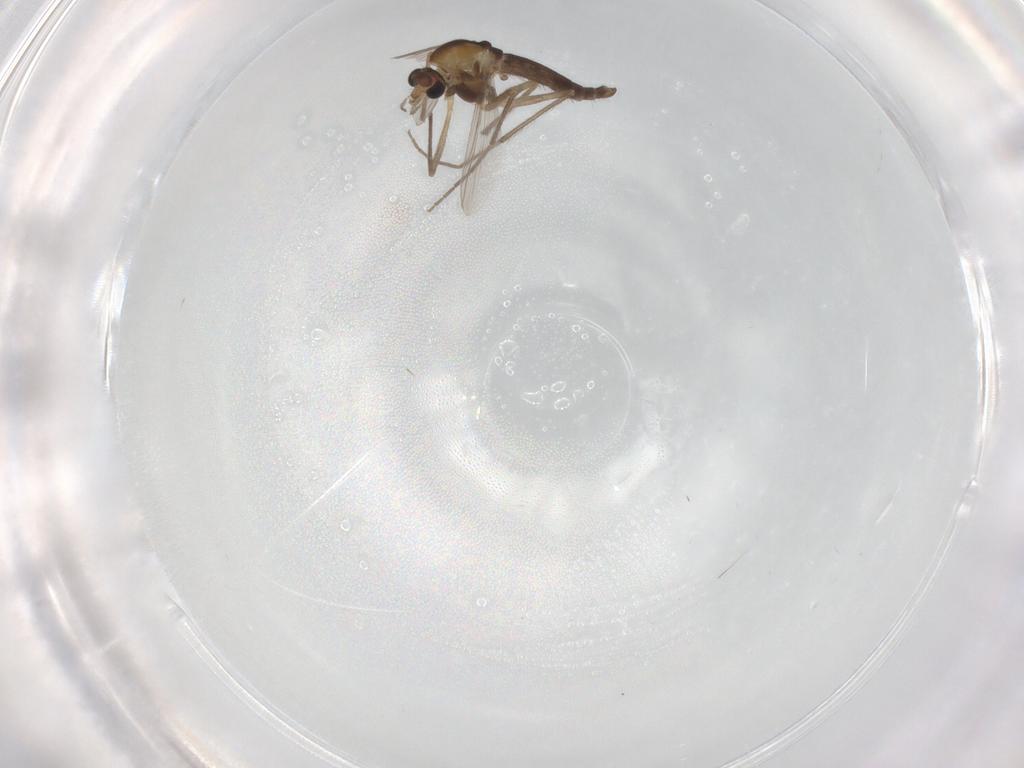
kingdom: Animalia
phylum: Arthropoda
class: Insecta
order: Diptera
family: Chironomidae
